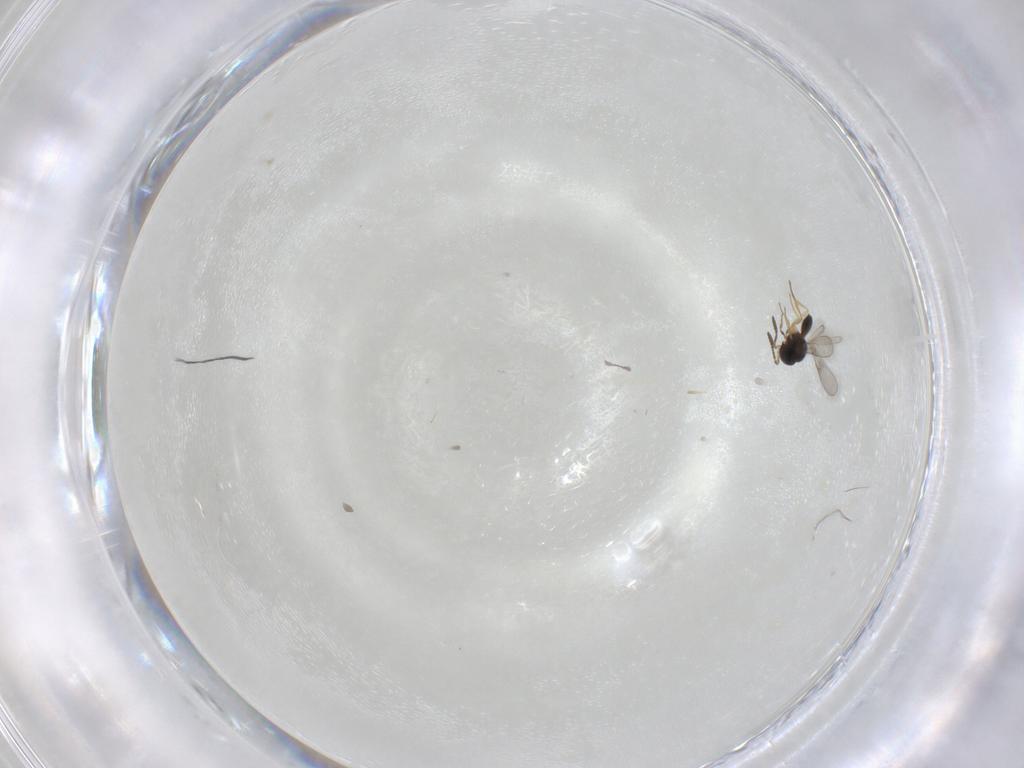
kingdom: Animalia
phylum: Arthropoda
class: Insecta
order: Hymenoptera
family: Scelionidae
